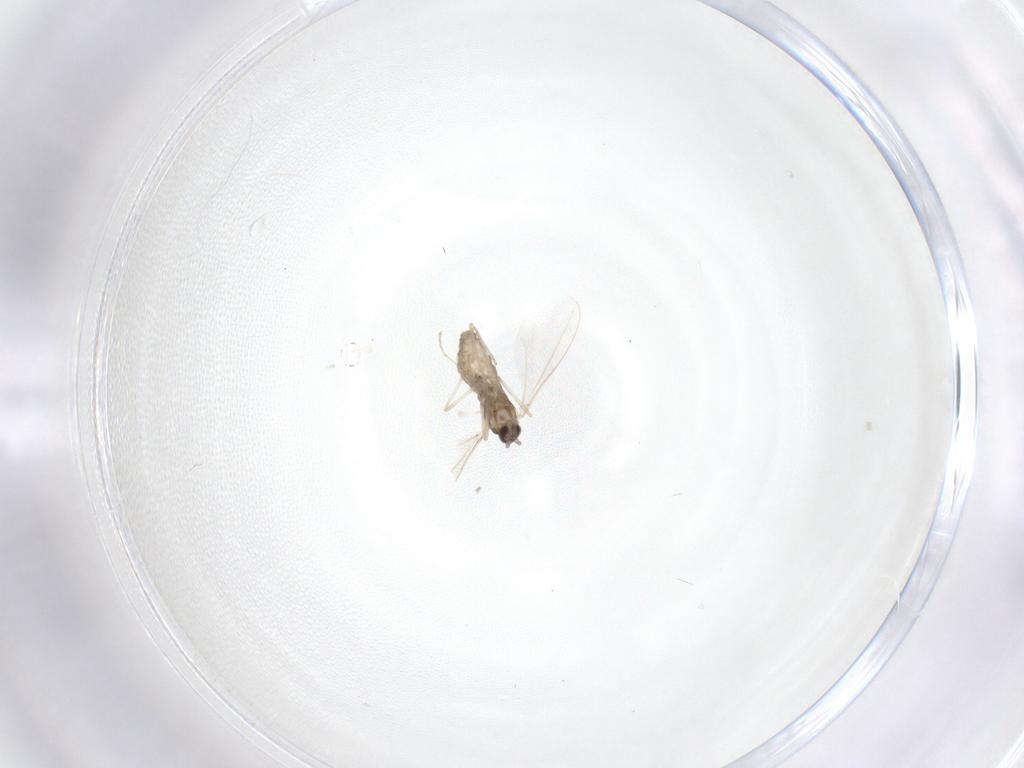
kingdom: Animalia
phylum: Arthropoda
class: Insecta
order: Diptera
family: Cecidomyiidae
